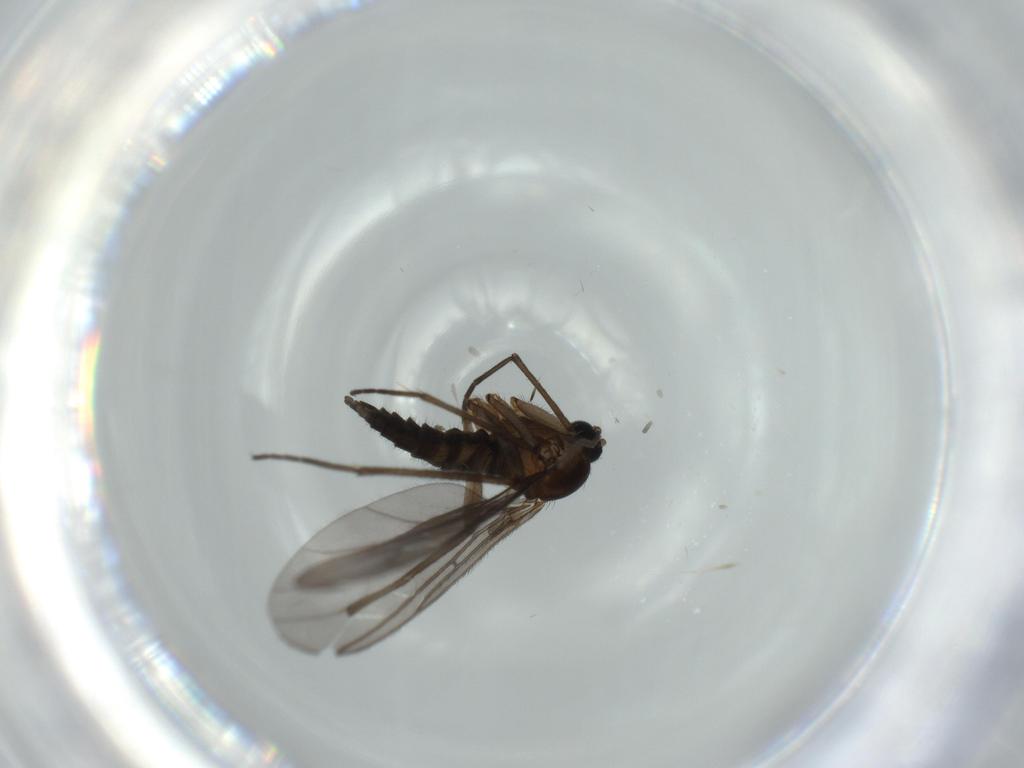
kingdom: Animalia
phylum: Arthropoda
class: Insecta
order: Diptera
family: Sciaridae
